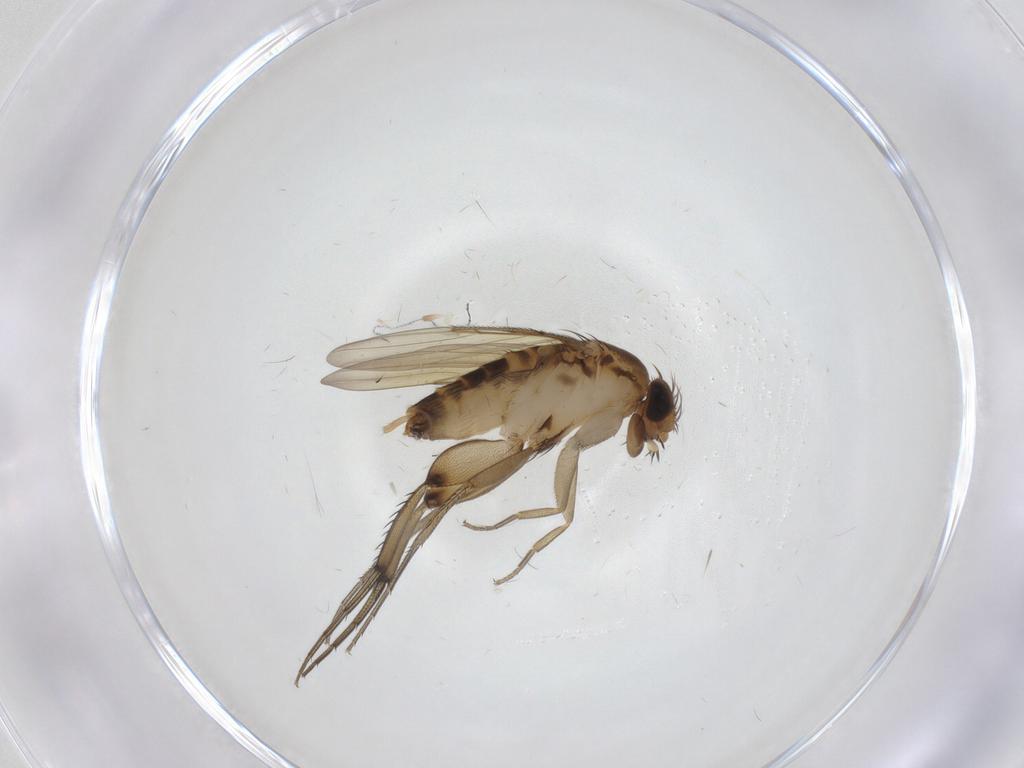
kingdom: Animalia
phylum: Arthropoda
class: Insecta
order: Diptera
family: Phoridae
